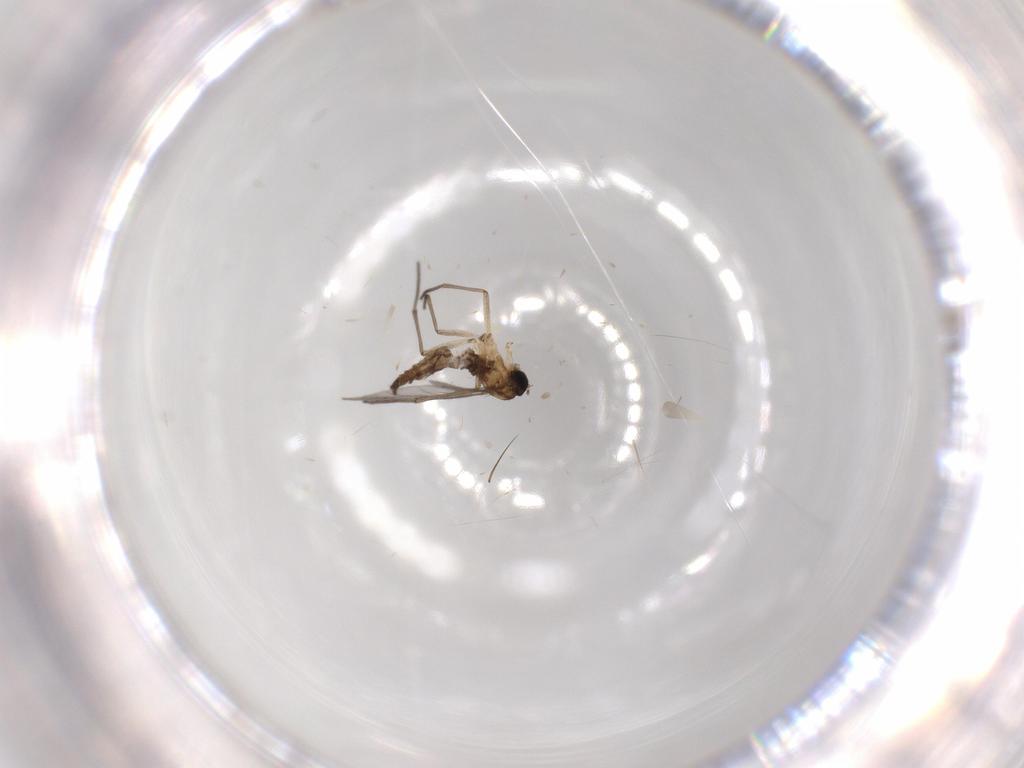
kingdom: Animalia
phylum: Arthropoda
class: Insecta
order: Diptera
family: Sciaridae
